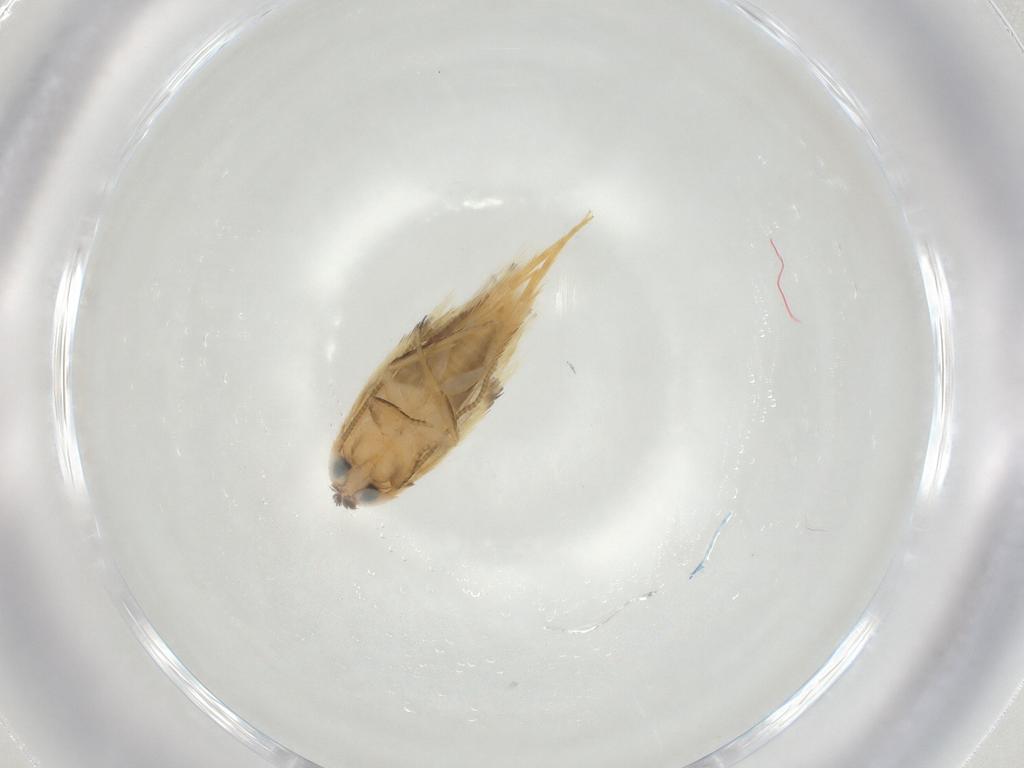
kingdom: Animalia
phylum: Arthropoda
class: Insecta
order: Lepidoptera
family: Opostegidae
